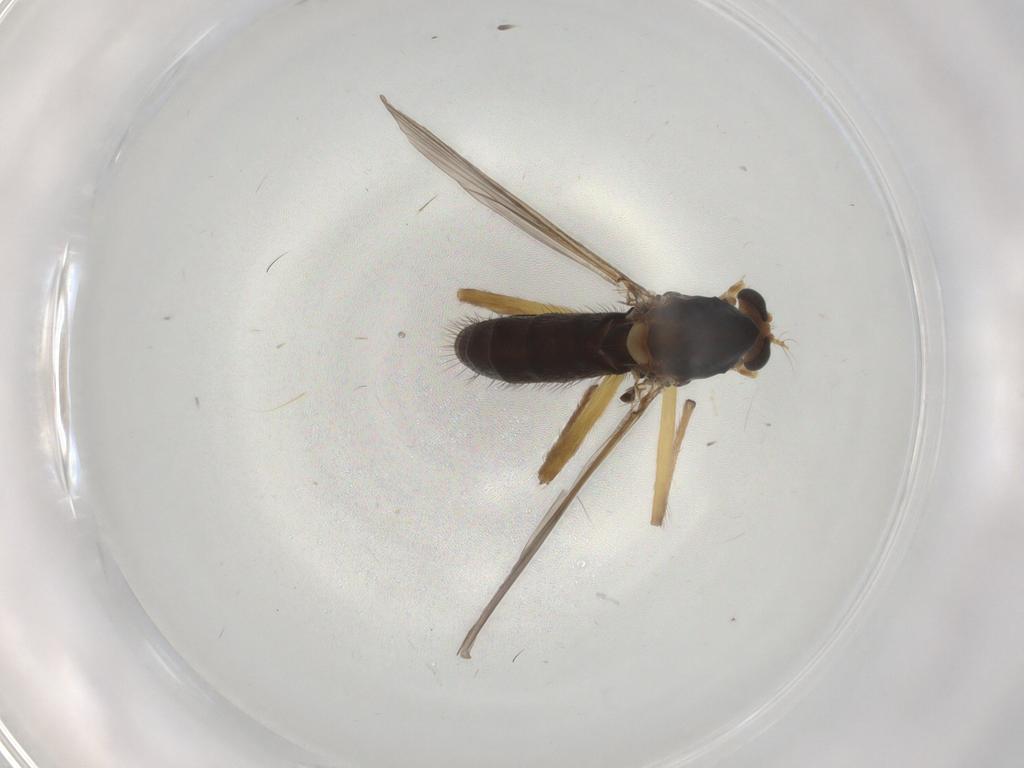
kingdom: Animalia
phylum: Arthropoda
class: Insecta
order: Diptera
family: Chironomidae
